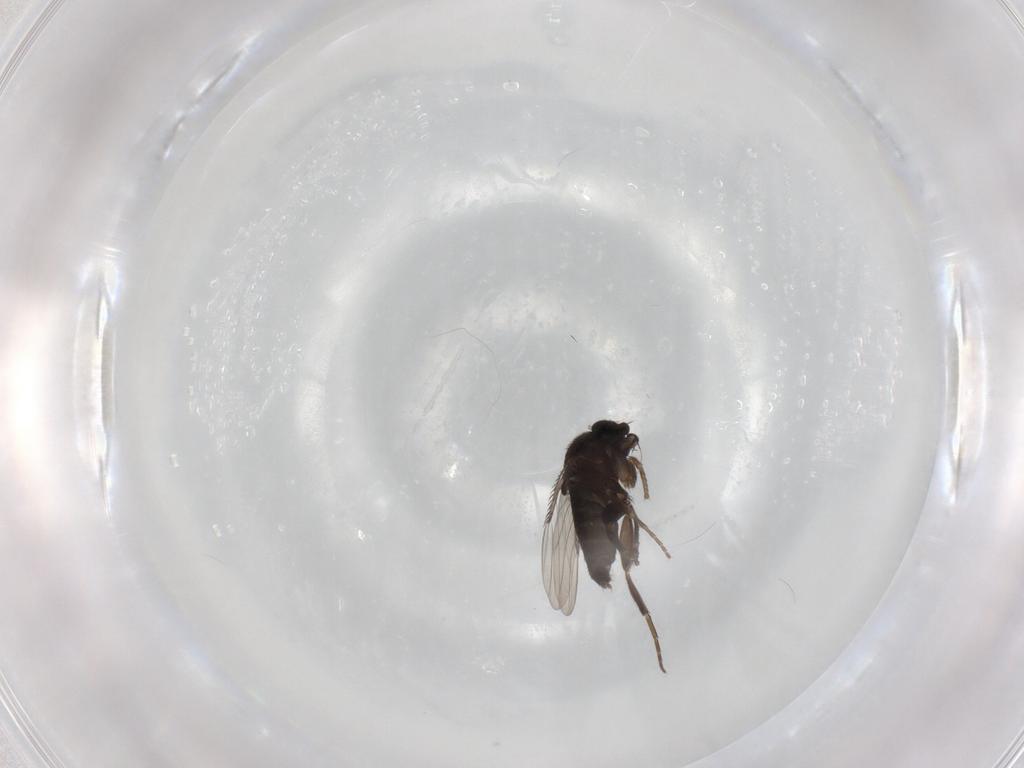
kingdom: Animalia
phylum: Arthropoda
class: Insecta
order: Diptera
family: Phoridae
